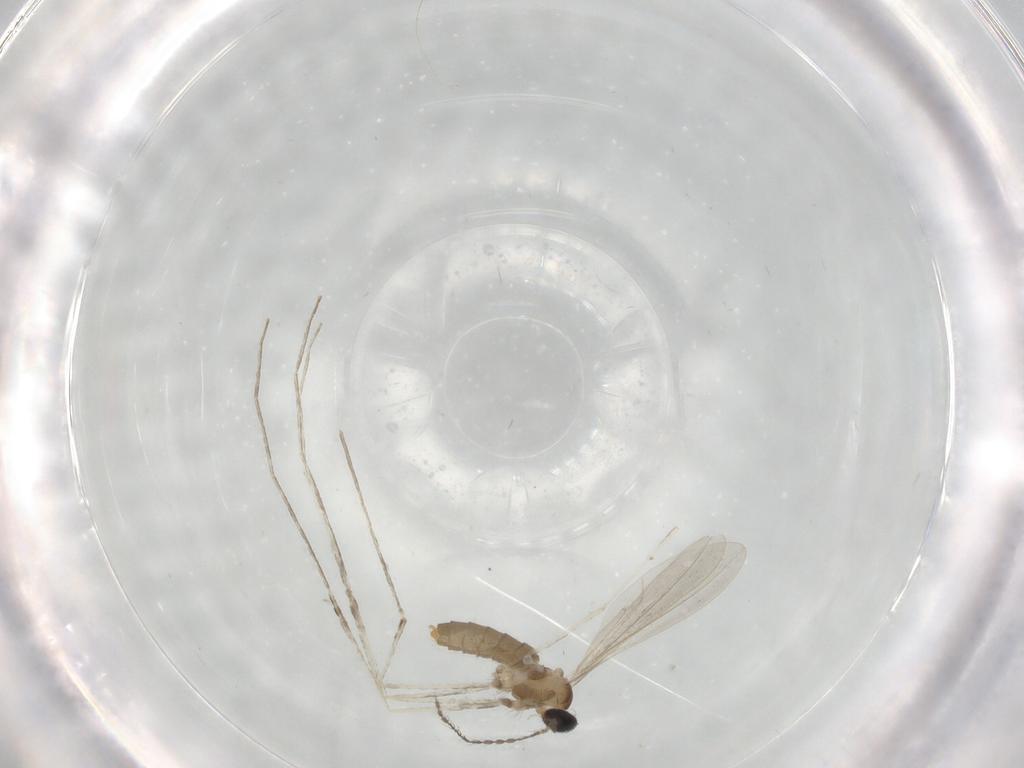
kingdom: Animalia
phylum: Arthropoda
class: Insecta
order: Diptera
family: Cecidomyiidae
